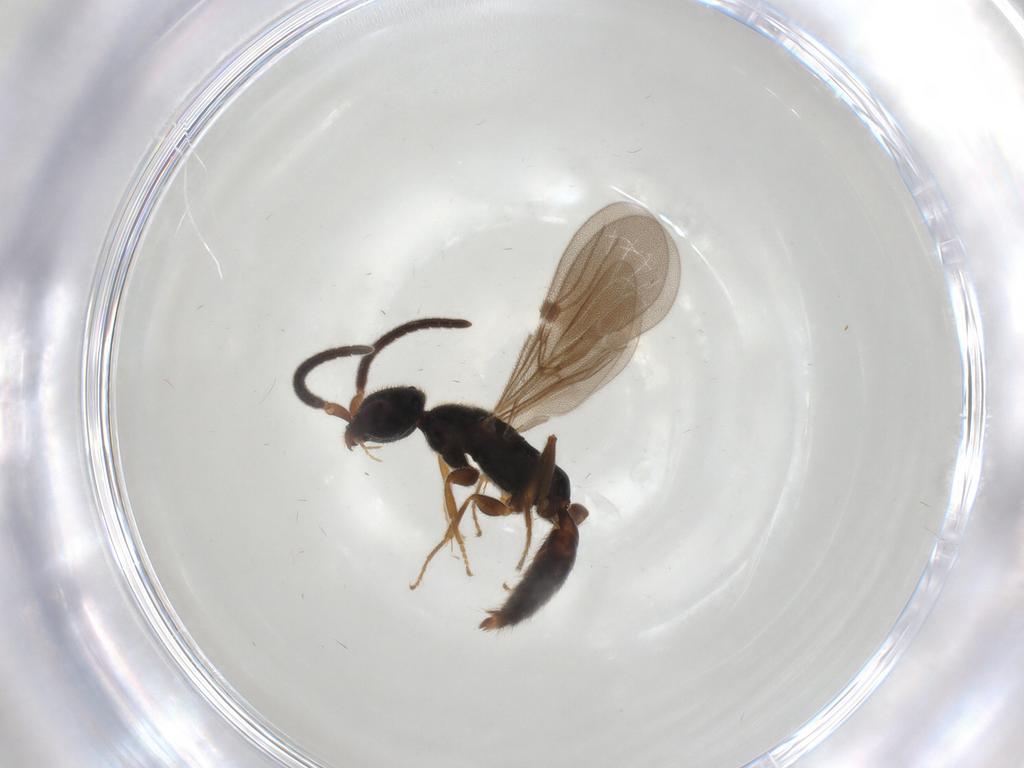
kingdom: Animalia
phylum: Arthropoda
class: Insecta
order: Hymenoptera
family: Bethylidae
